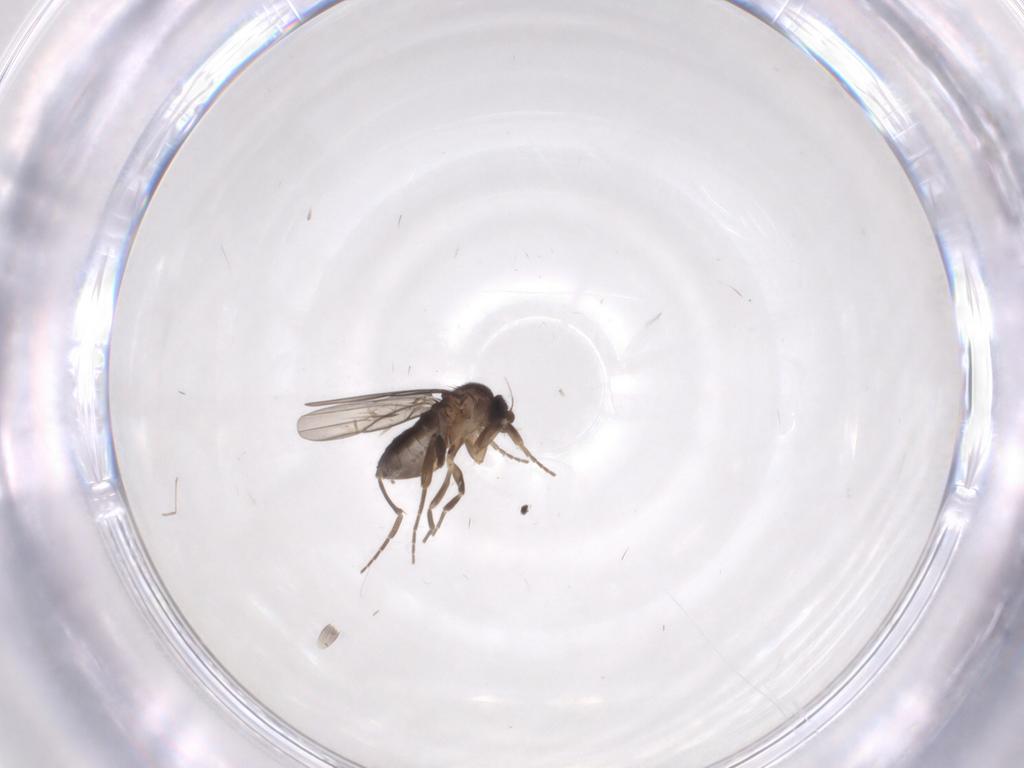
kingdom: Animalia
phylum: Arthropoda
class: Insecta
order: Diptera
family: Cecidomyiidae
